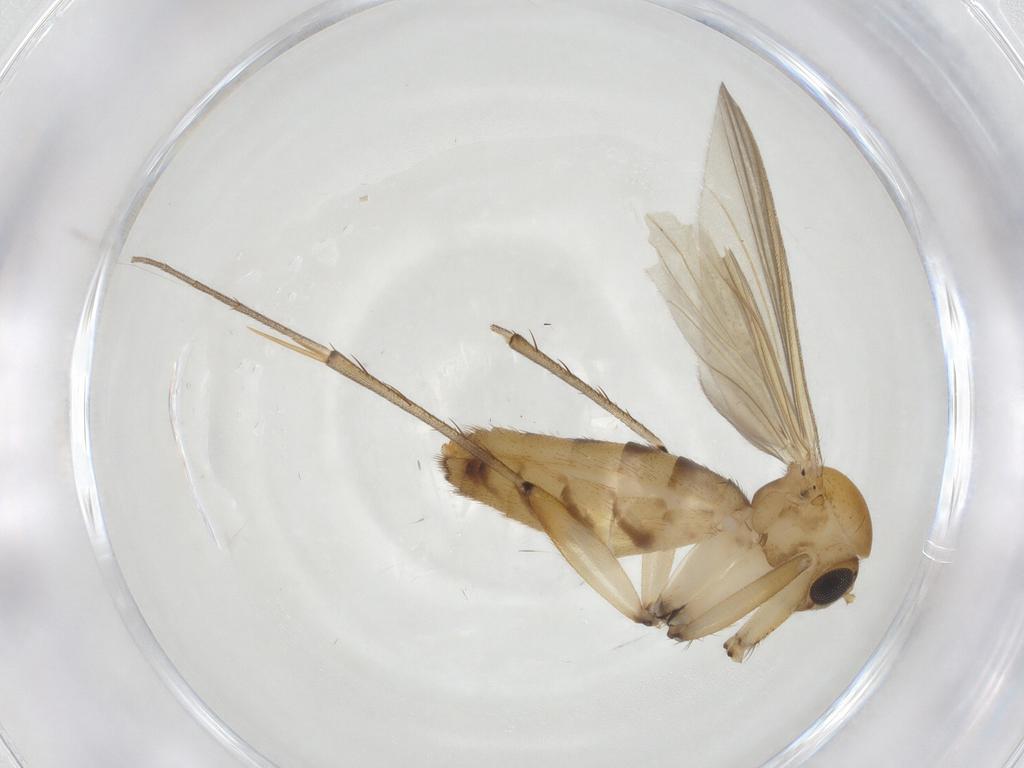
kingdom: Animalia
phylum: Arthropoda
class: Insecta
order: Diptera
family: Mycetophilidae
